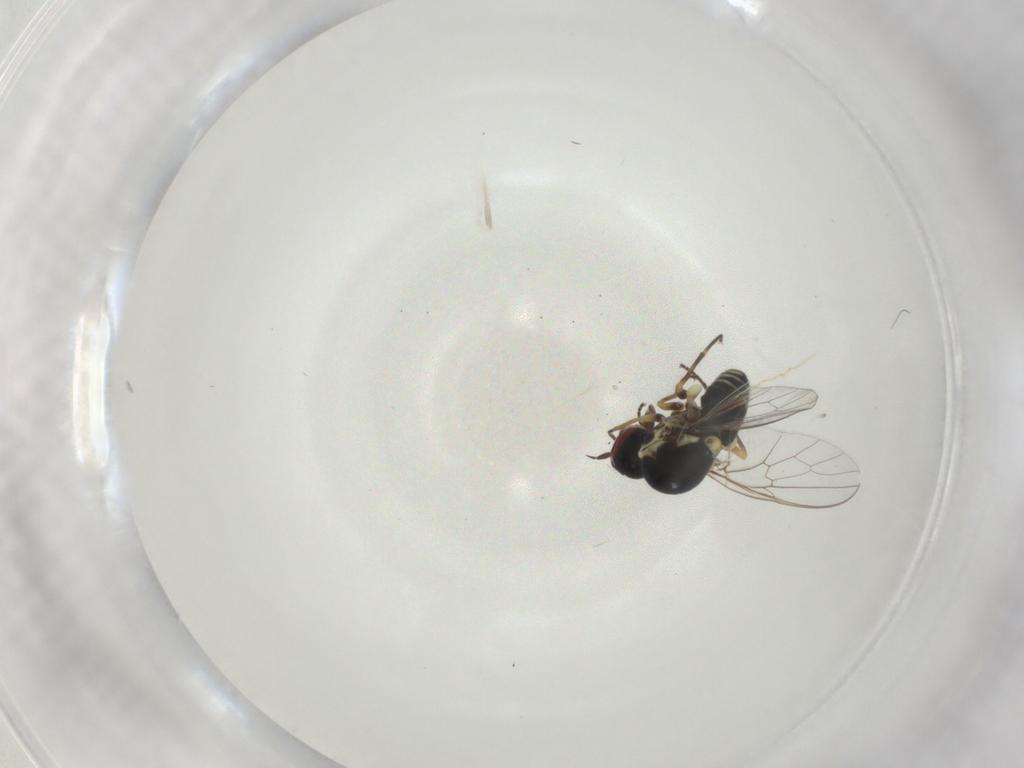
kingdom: Animalia
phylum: Arthropoda
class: Insecta
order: Diptera
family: Bombyliidae
